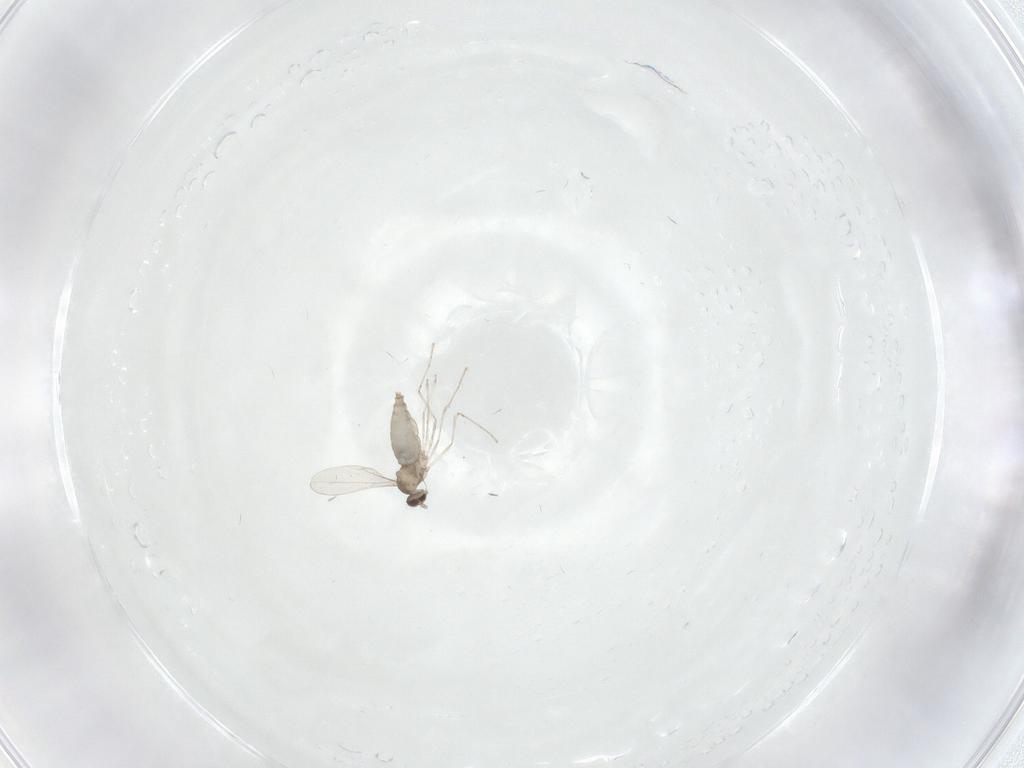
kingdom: Animalia
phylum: Arthropoda
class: Insecta
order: Diptera
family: Cecidomyiidae
